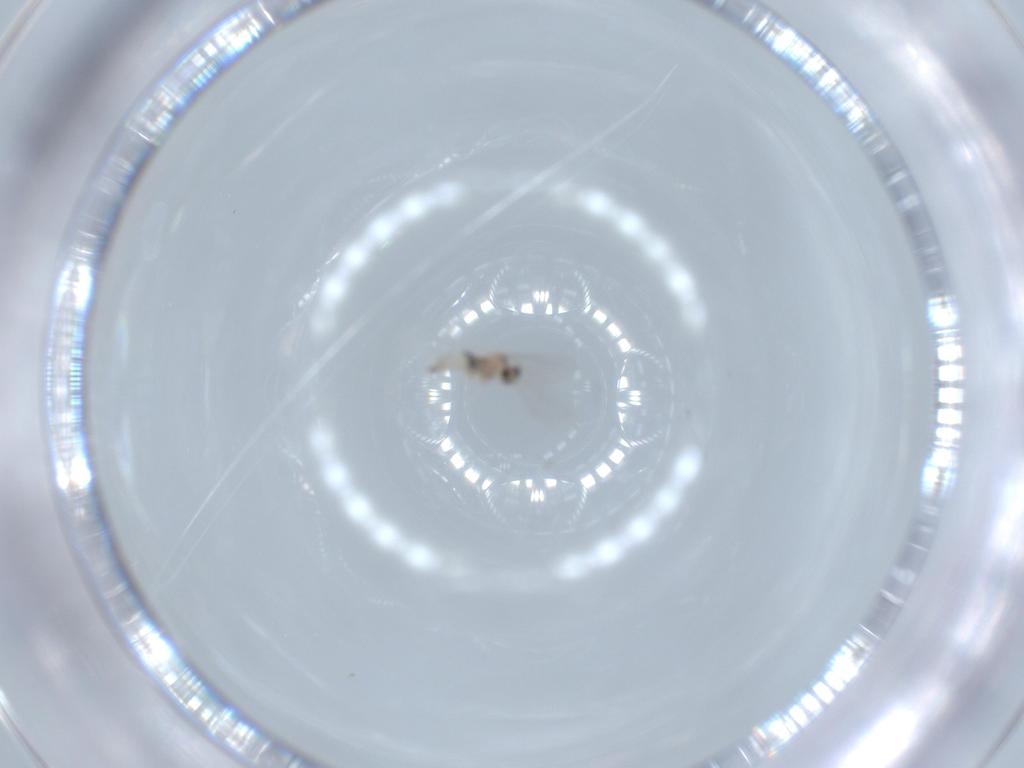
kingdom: Animalia
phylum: Arthropoda
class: Insecta
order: Diptera
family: Cecidomyiidae
